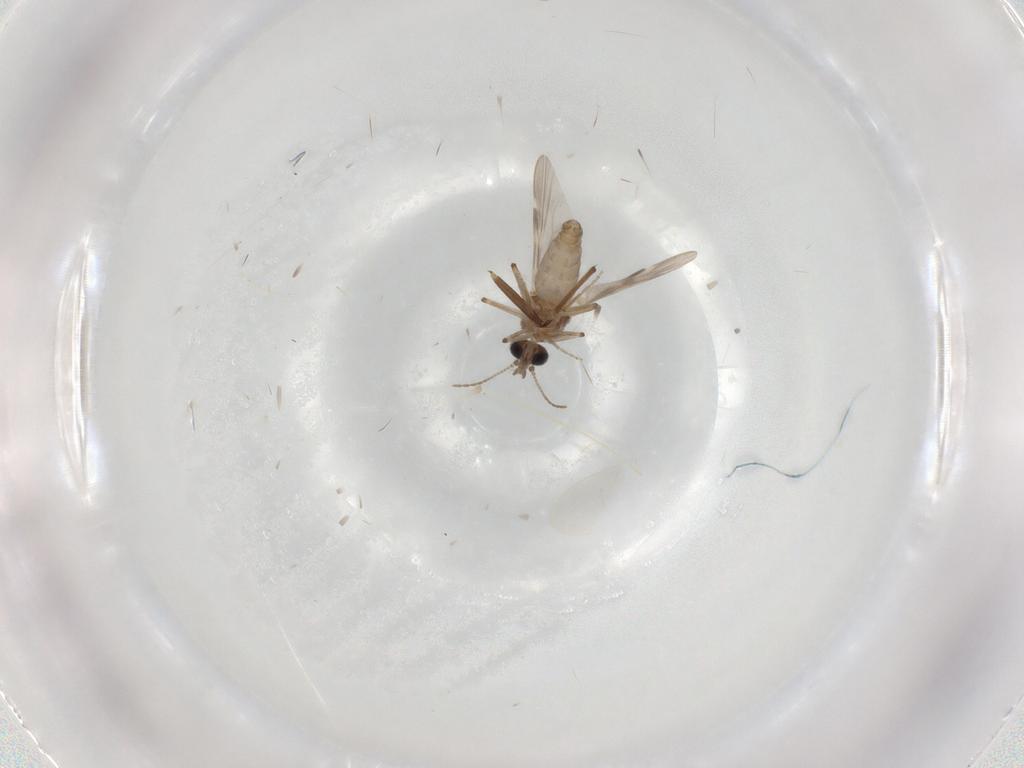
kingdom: Animalia
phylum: Arthropoda
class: Insecta
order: Diptera
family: Ceratopogonidae
